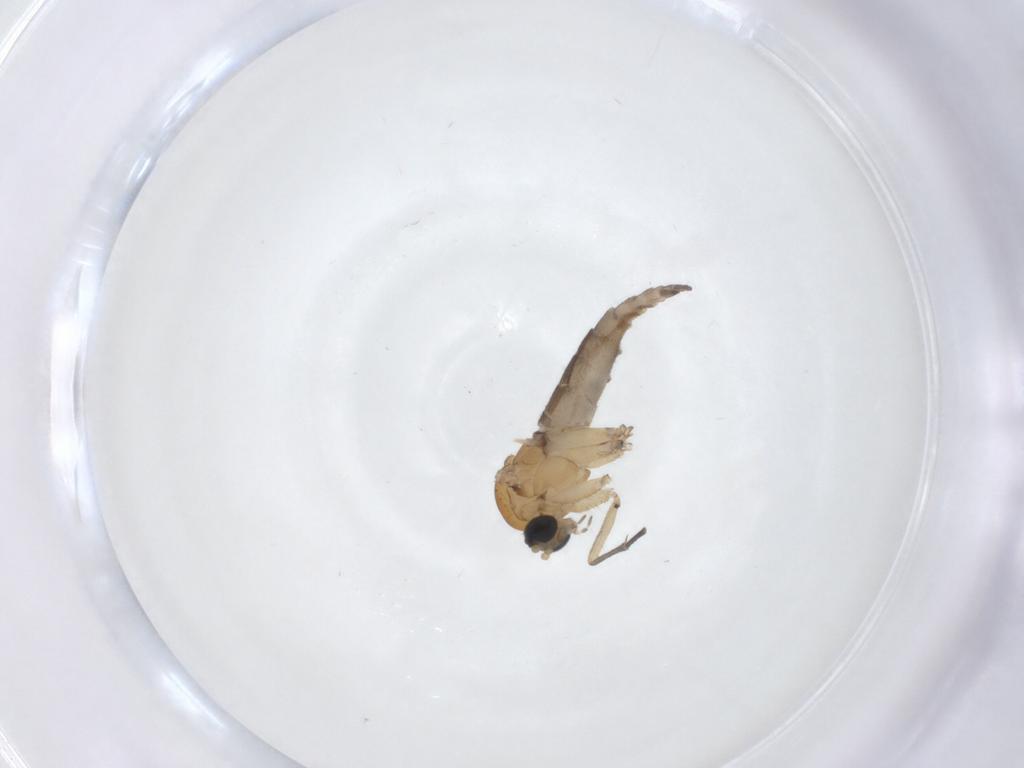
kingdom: Animalia
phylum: Arthropoda
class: Insecta
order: Diptera
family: Sciaridae
